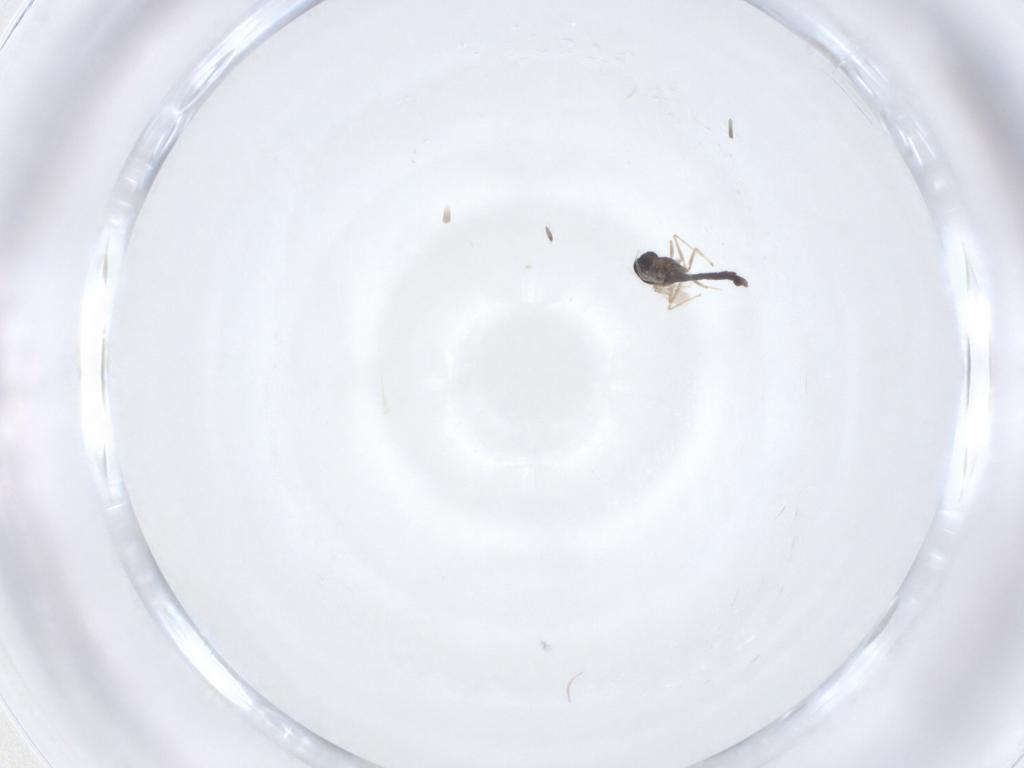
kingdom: Animalia
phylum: Arthropoda
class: Insecta
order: Diptera
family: Chironomidae
